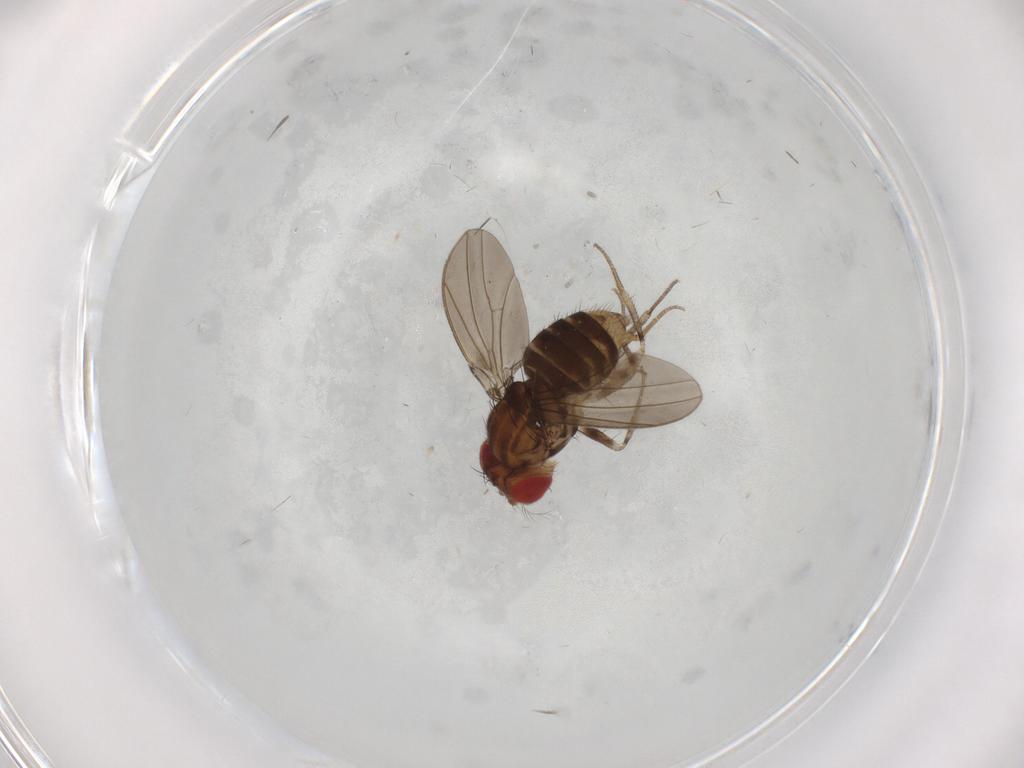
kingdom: Animalia
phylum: Arthropoda
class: Insecta
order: Diptera
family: Drosophilidae
